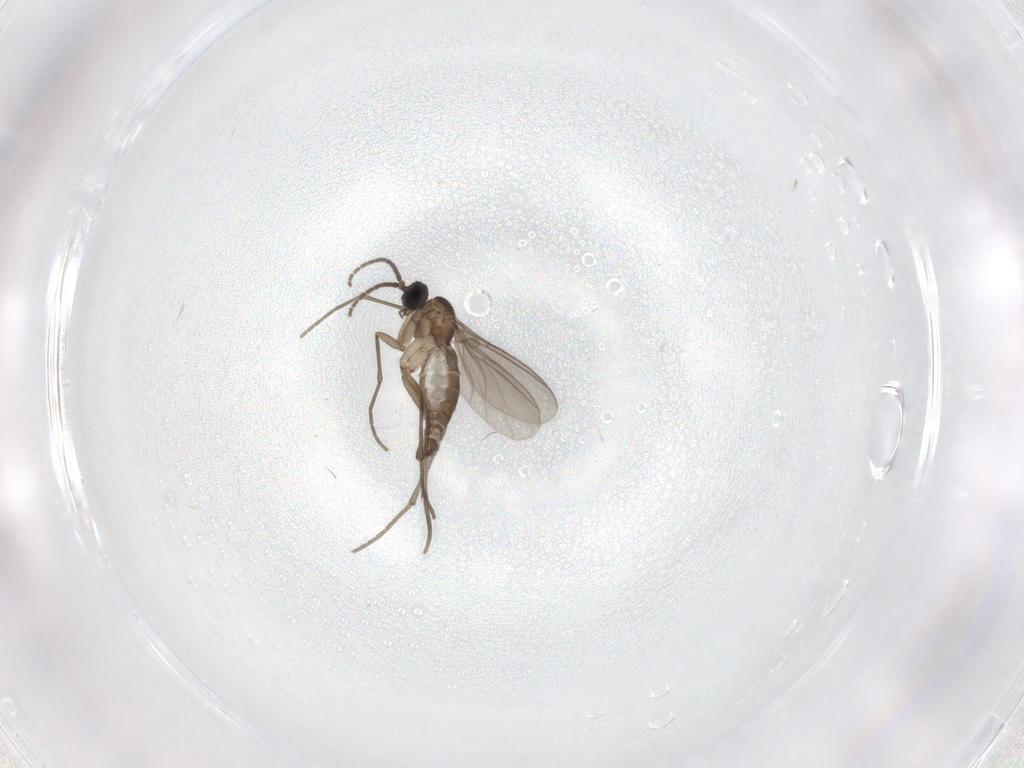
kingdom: Animalia
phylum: Arthropoda
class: Insecta
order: Diptera
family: Sciaridae
